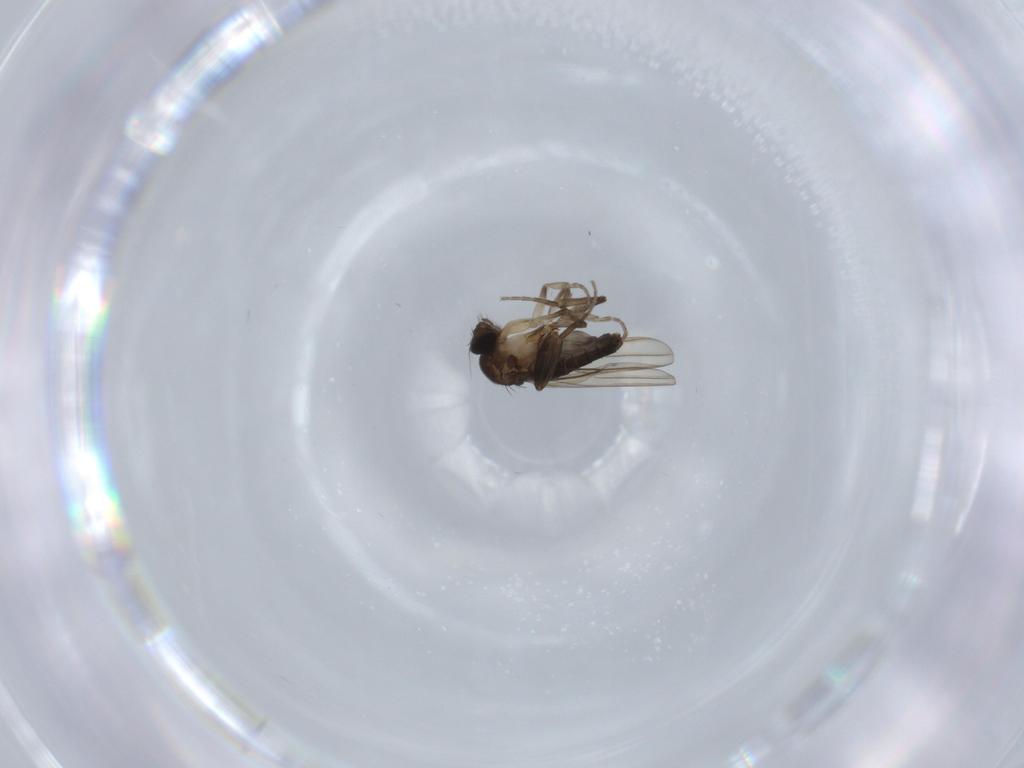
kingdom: Animalia
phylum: Arthropoda
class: Insecta
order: Diptera
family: Phoridae
